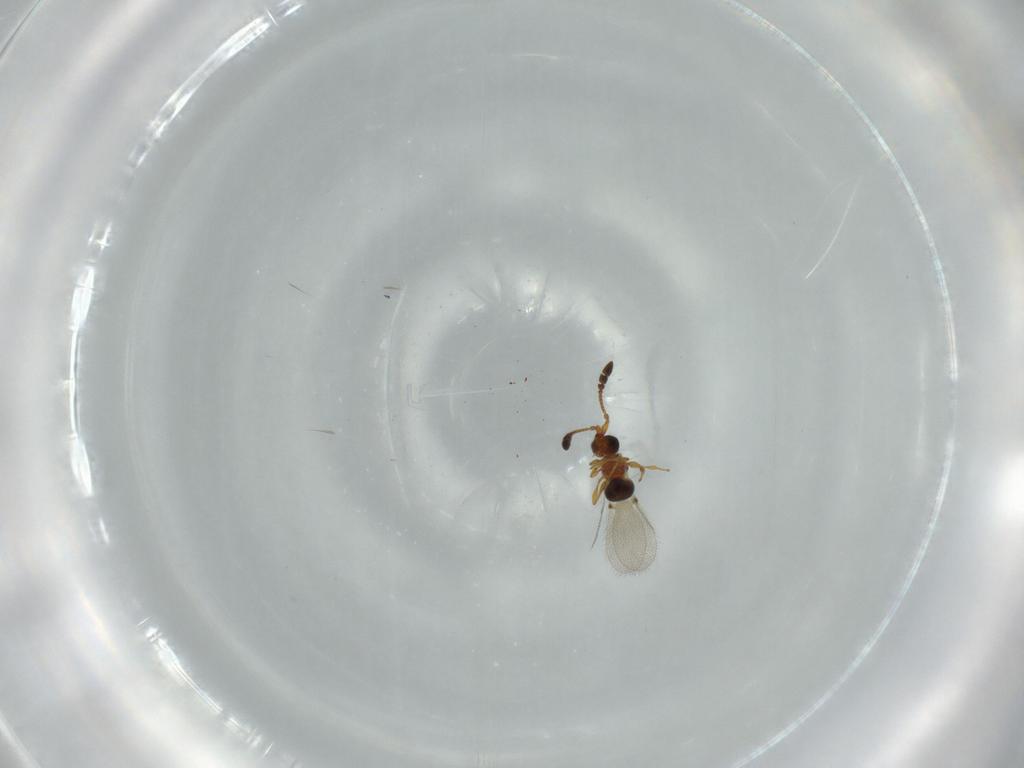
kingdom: Animalia
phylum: Arthropoda
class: Insecta
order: Hymenoptera
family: Diapriidae
